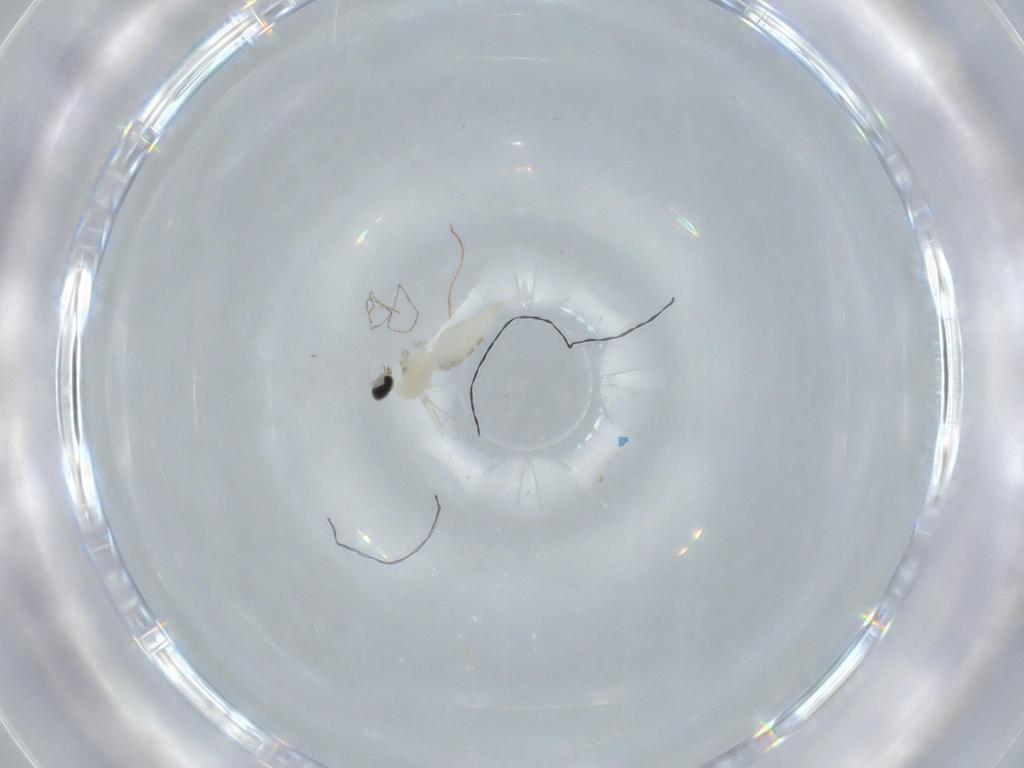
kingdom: Animalia
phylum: Arthropoda
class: Insecta
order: Diptera
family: Cecidomyiidae
